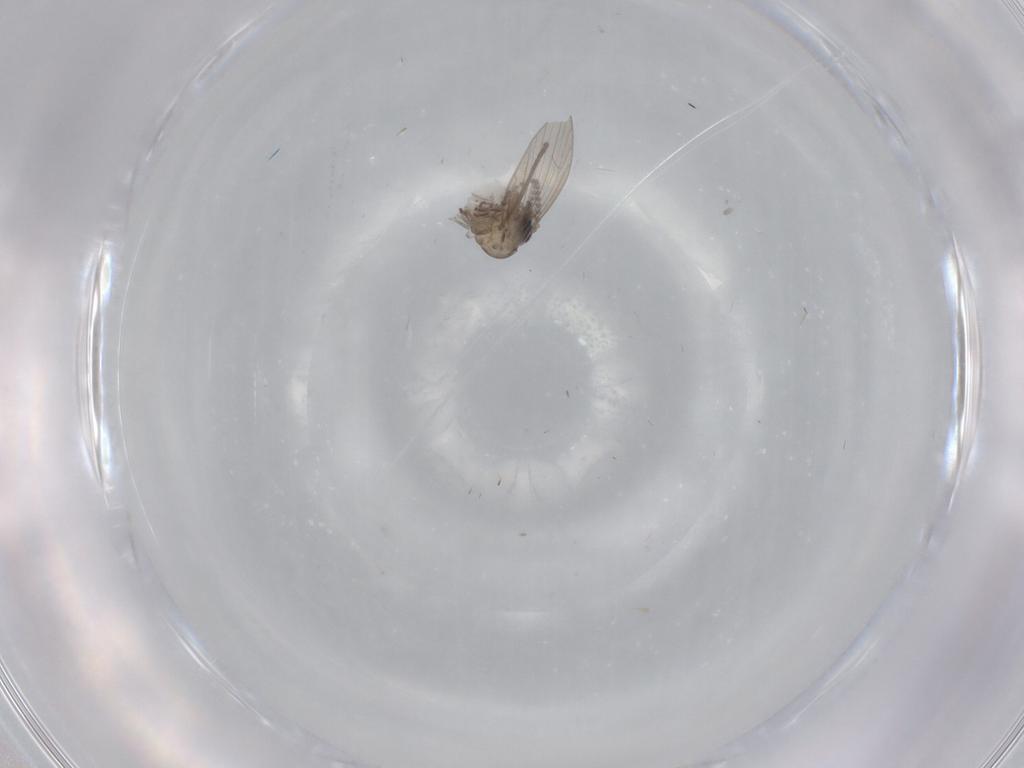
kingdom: Animalia
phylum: Arthropoda
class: Insecta
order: Diptera
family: Psychodidae
